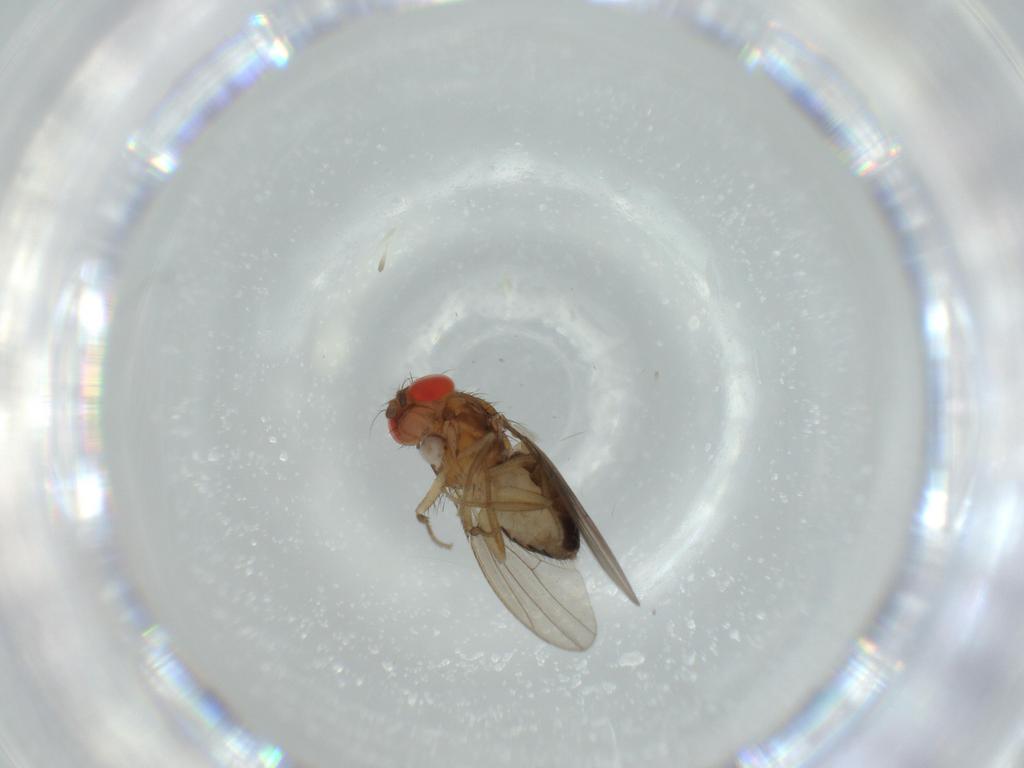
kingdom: Animalia
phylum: Arthropoda
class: Insecta
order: Diptera
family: Drosophilidae
